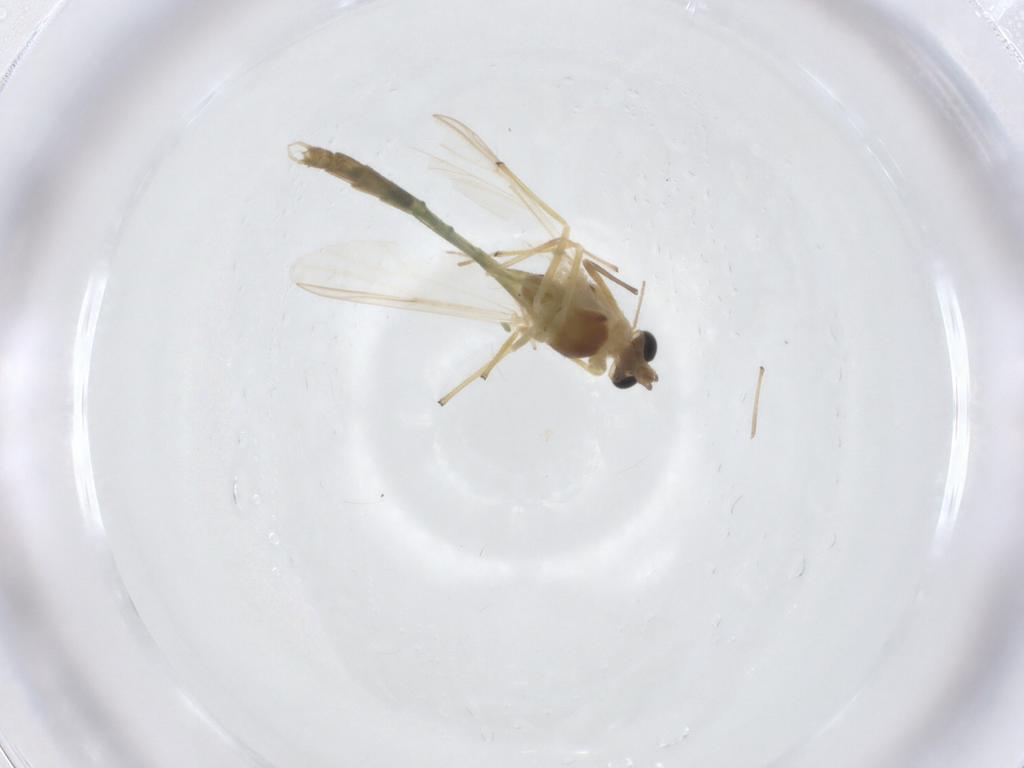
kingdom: Animalia
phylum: Arthropoda
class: Insecta
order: Diptera
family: Chironomidae
